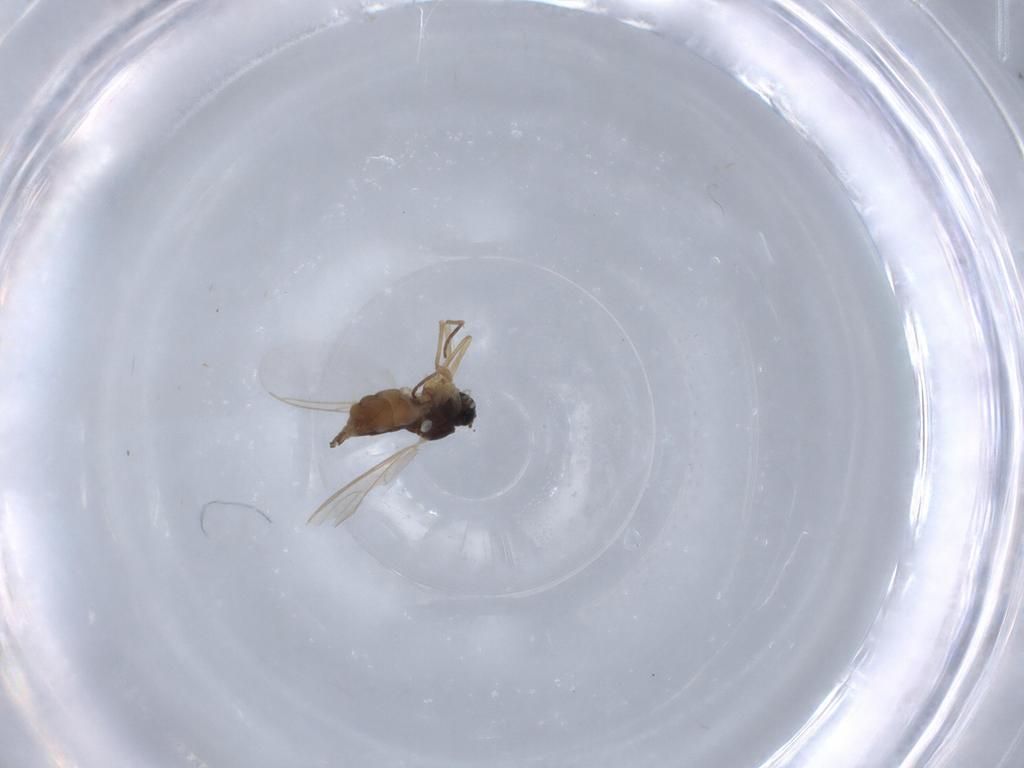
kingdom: Animalia
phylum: Arthropoda
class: Insecta
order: Diptera
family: Sciaridae
